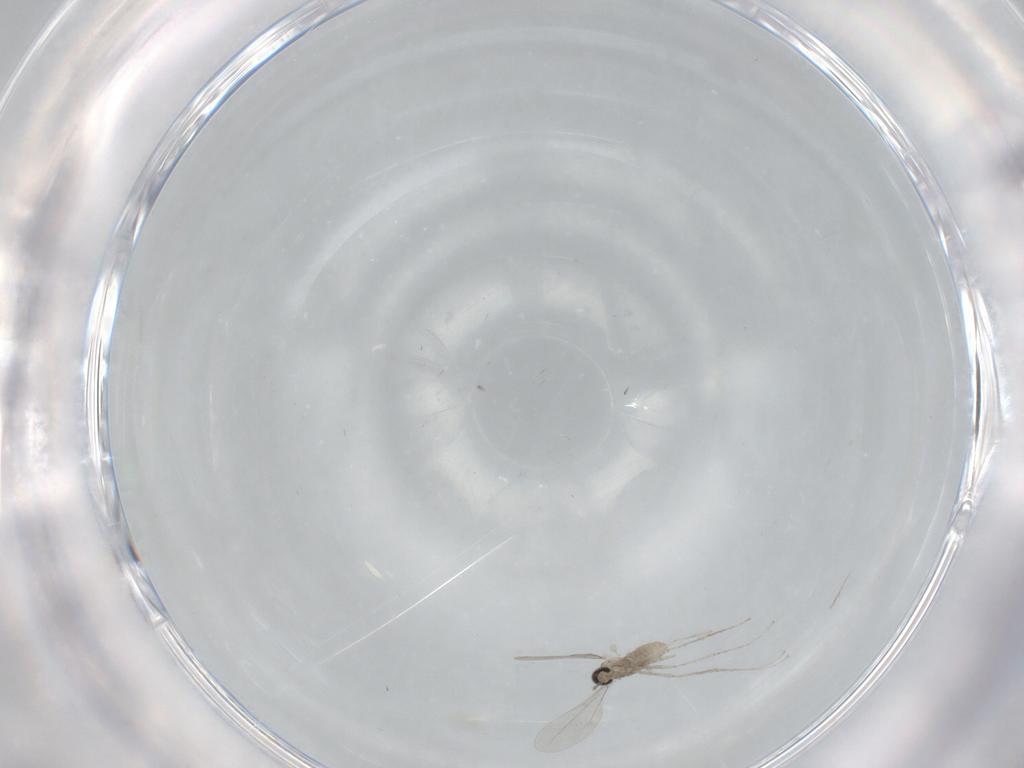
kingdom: Animalia
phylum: Arthropoda
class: Insecta
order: Diptera
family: Cecidomyiidae
